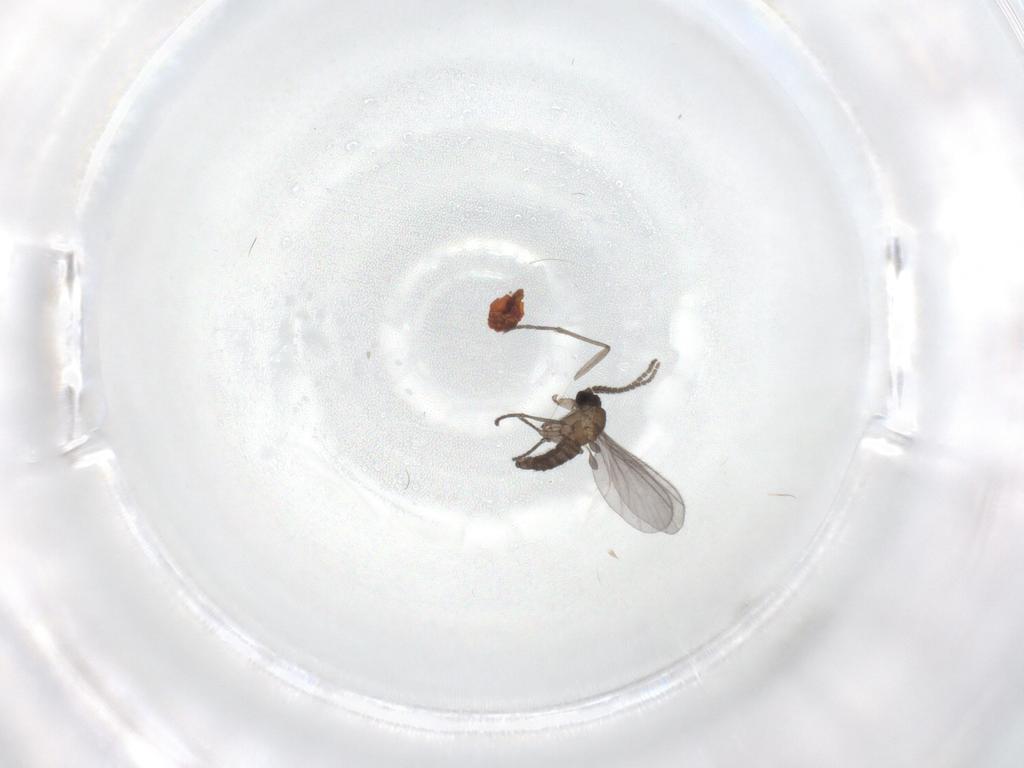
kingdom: Animalia
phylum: Arthropoda
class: Insecta
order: Diptera
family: Sciaridae
